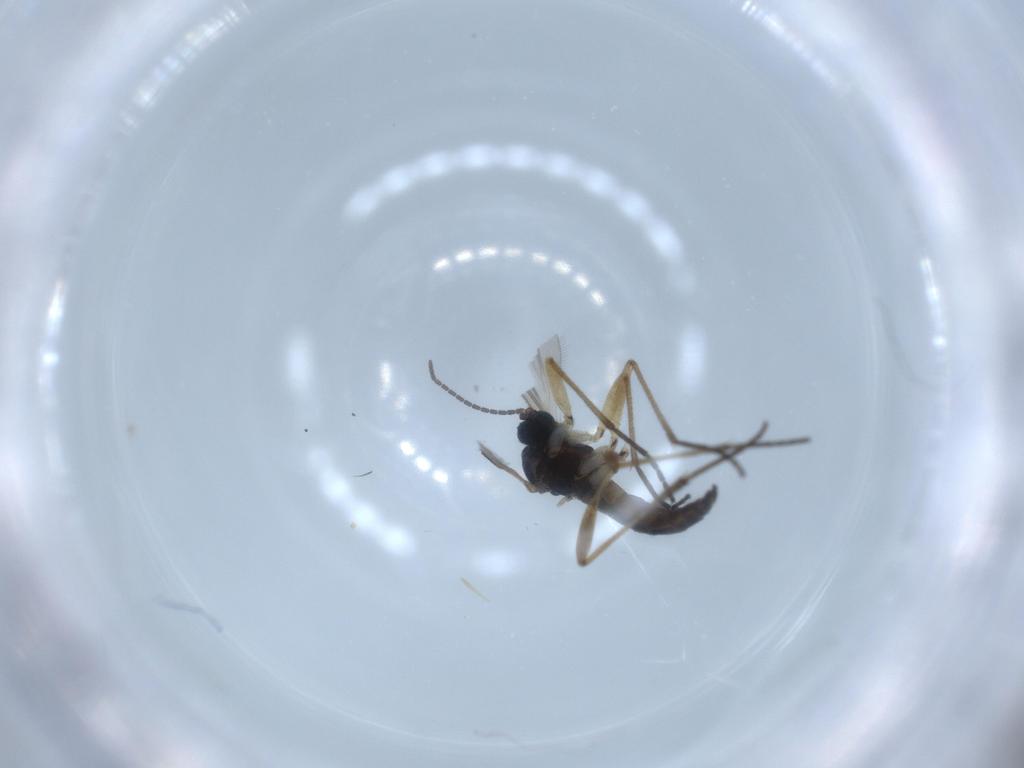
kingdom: Animalia
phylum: Arthropoda
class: Insecta
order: Diptera
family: Sciaridae
